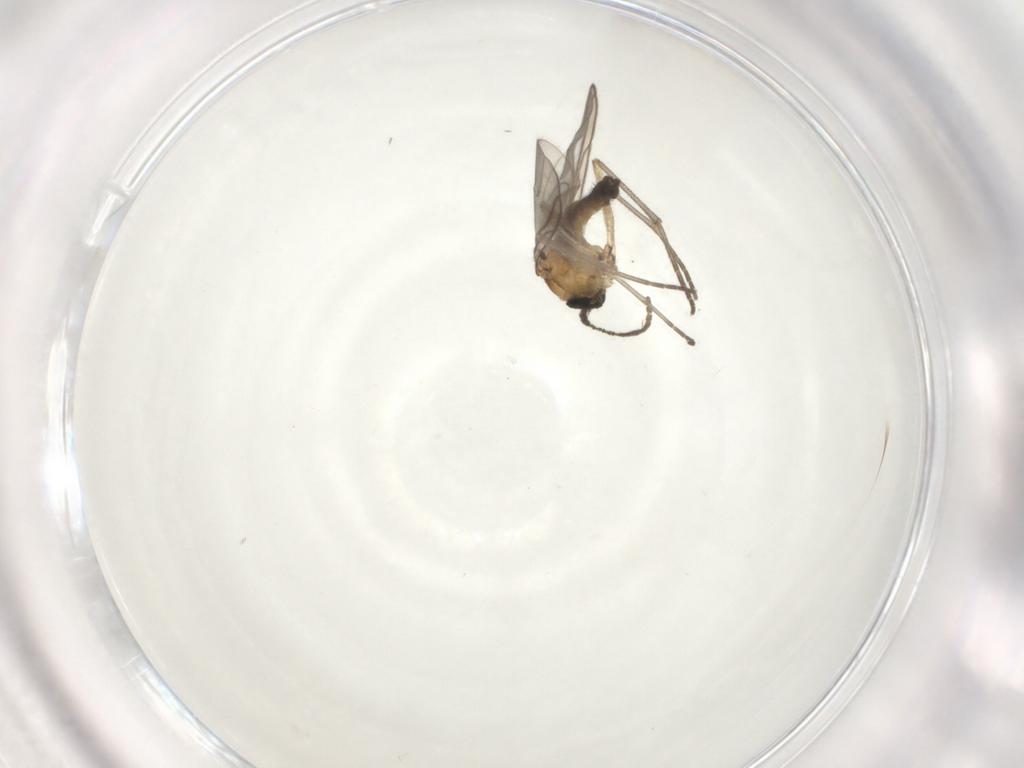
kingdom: Animalia
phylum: Arthropoda
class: Insecta
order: Diptera
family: Sciaridae
